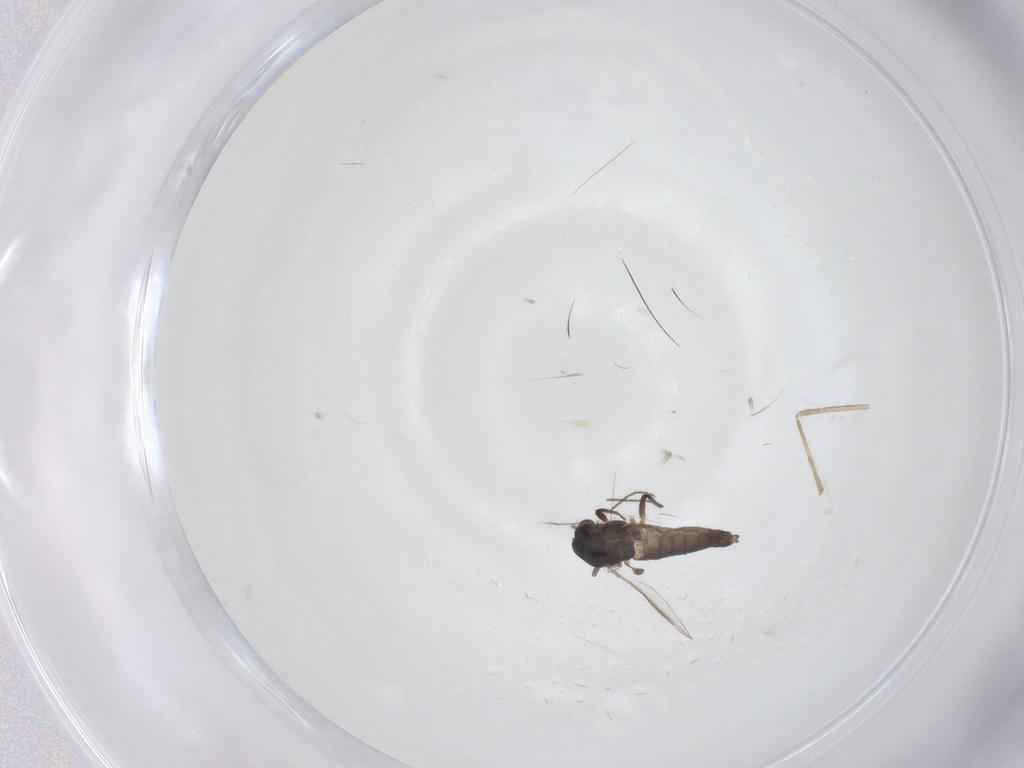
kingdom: Animalia
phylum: Arthropoda
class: Insecta
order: Diptera
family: Chironomidae
